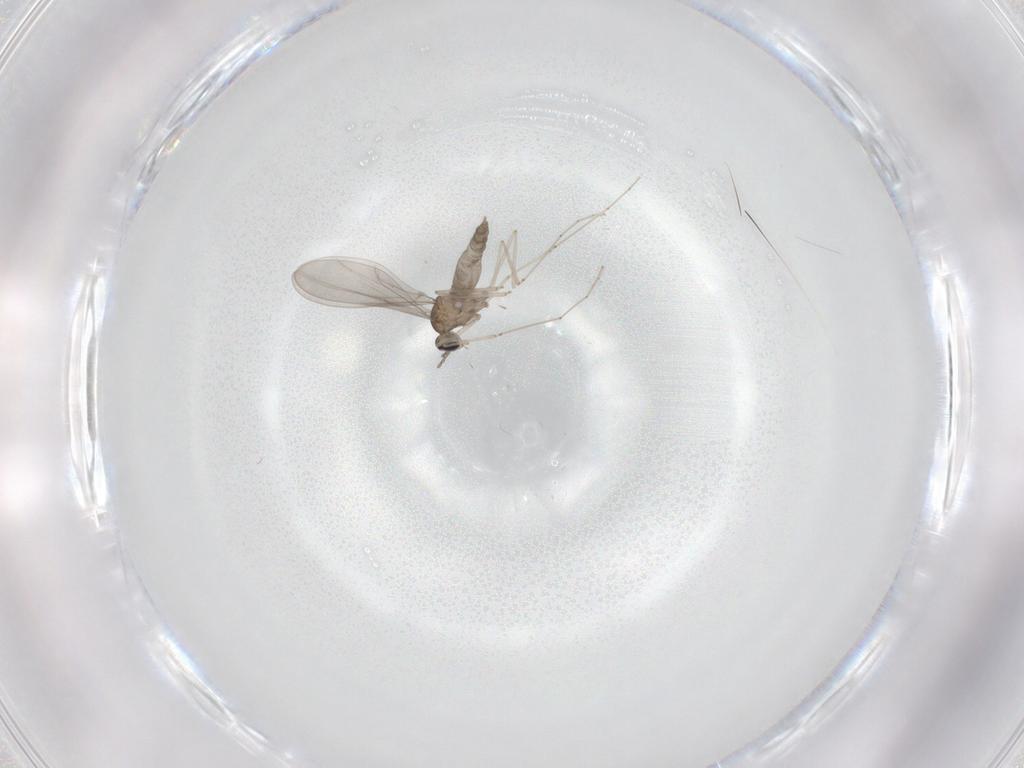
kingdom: Animalia
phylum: Arthropoda
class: Insecta
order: Diptera
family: Cecidomyiidae
